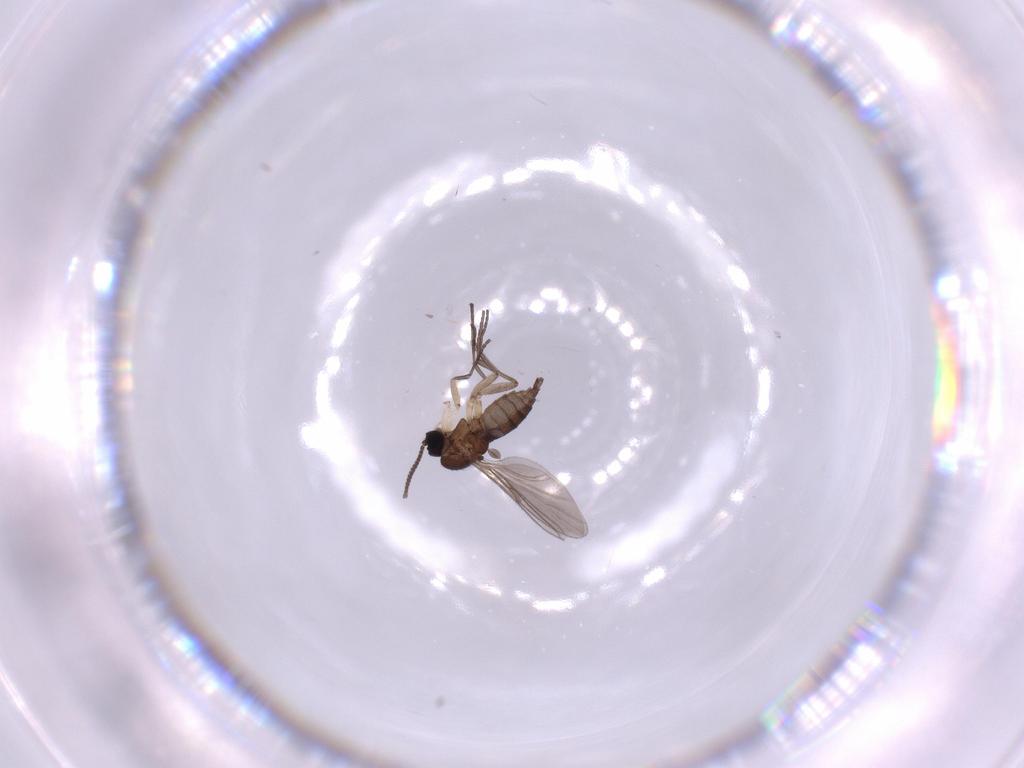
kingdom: Animalia
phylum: Arthropoda
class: Insecta
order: Diptera
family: Sciaridae
